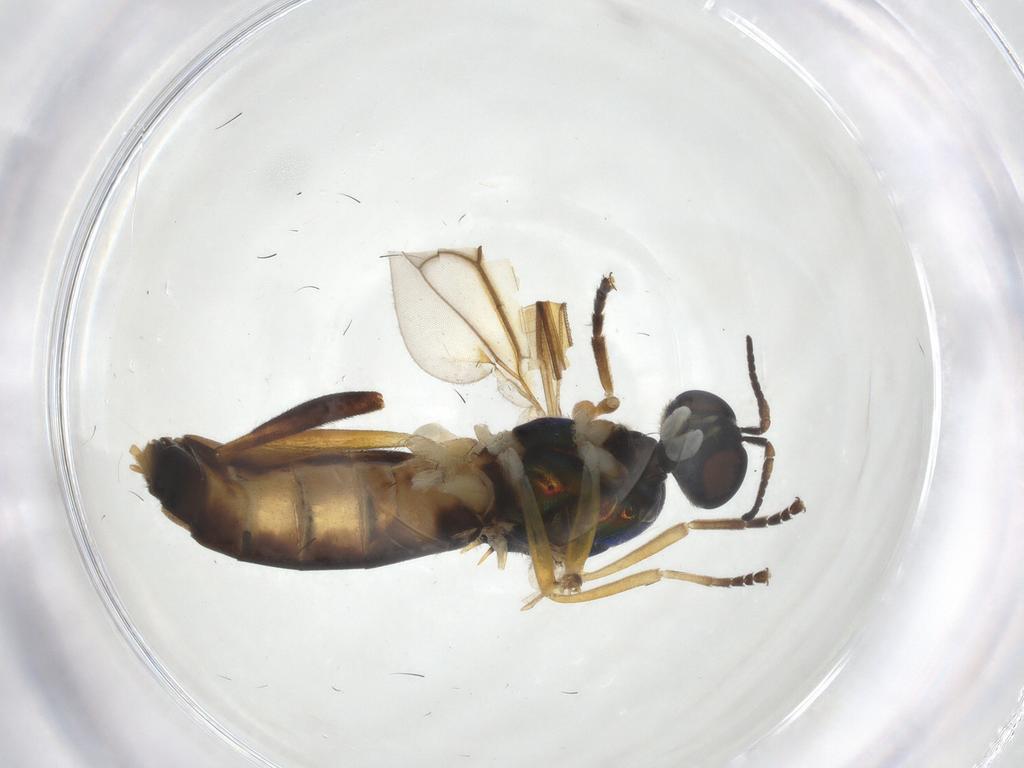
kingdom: Animalia
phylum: Arthropoda
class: Insecta
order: Diptera
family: Stratiomyidae
